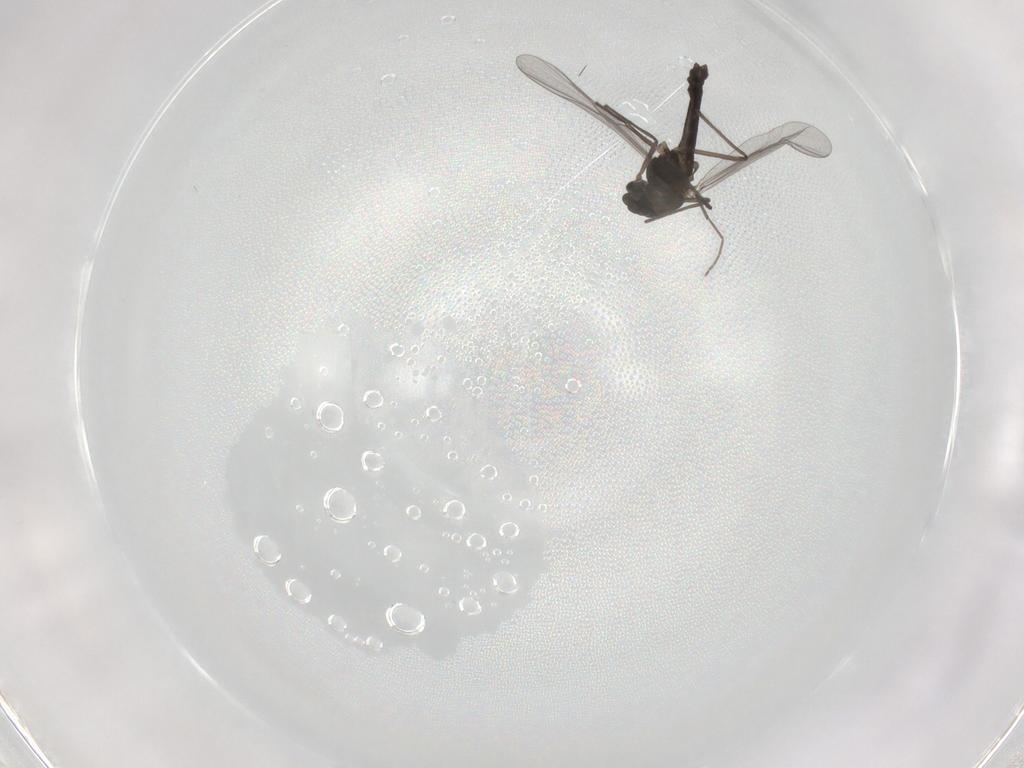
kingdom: Animalia
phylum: Arthropoda
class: Insecta
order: Diptera
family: Chironomidae
